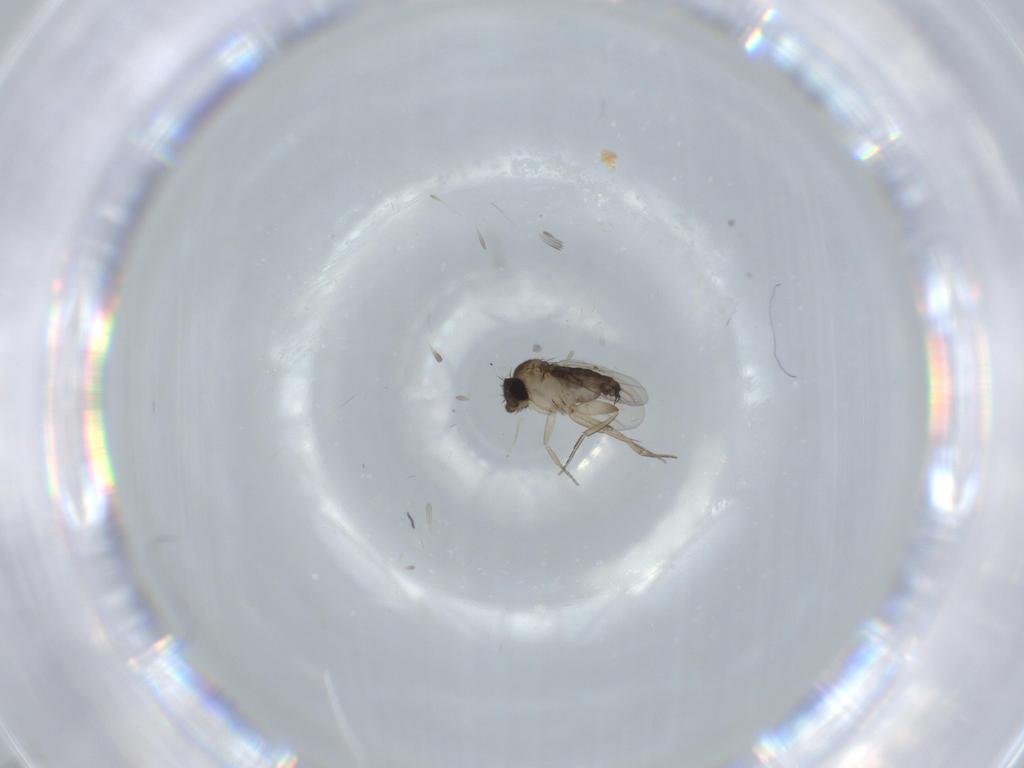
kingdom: Animalia
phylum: Arthropoda
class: Insecta
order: Diptera
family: Phoridae
